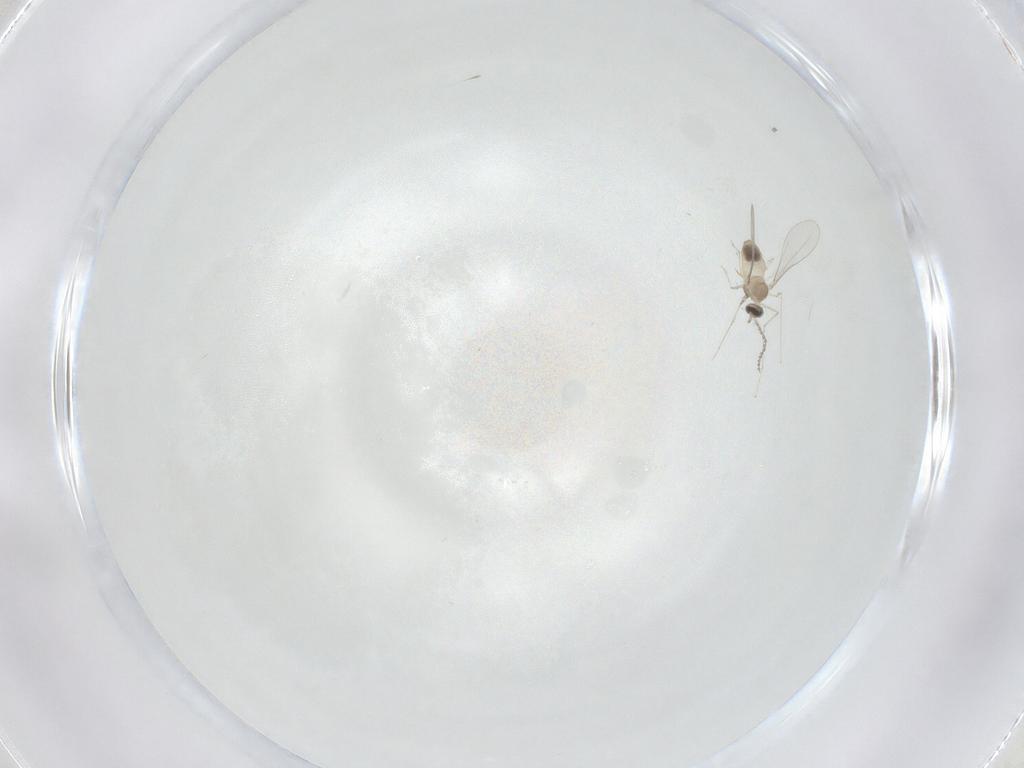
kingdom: Animalia
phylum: Arthropoda
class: Insecta
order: Diptera
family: Cecidomyiidae
